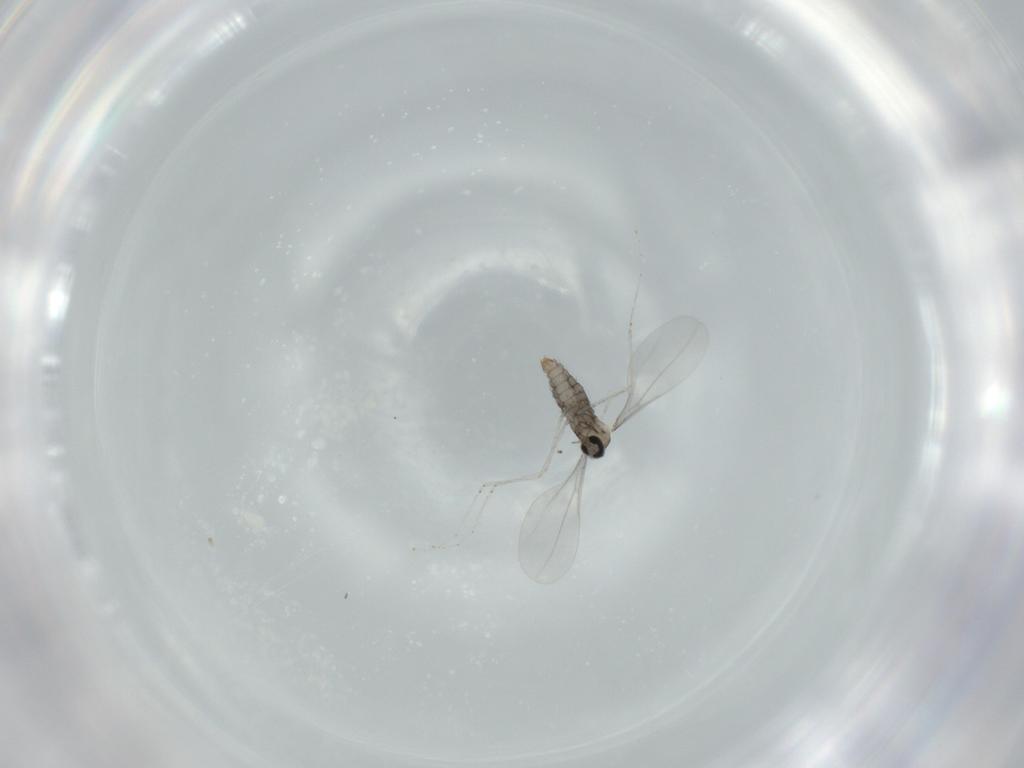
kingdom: Animalia
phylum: Arthropoda
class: Insecta
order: Diptera
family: Cecidomyiidae
